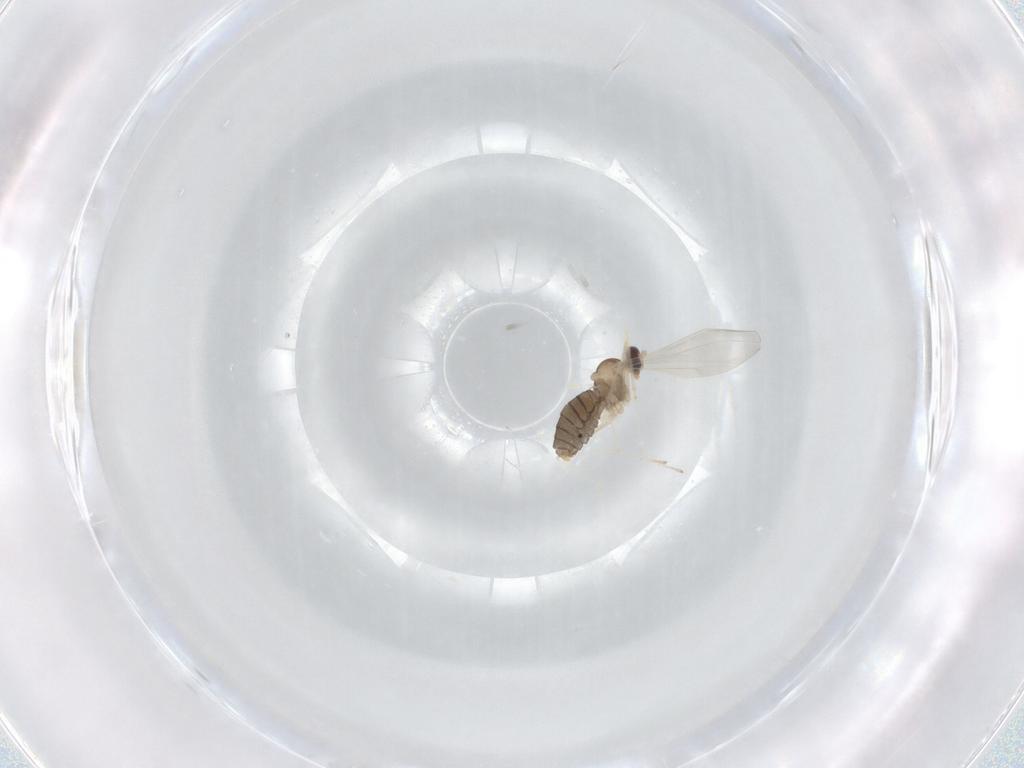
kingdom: Animalia
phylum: Arthropoda
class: Insecta
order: Diptera
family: Cecidomyiidae
